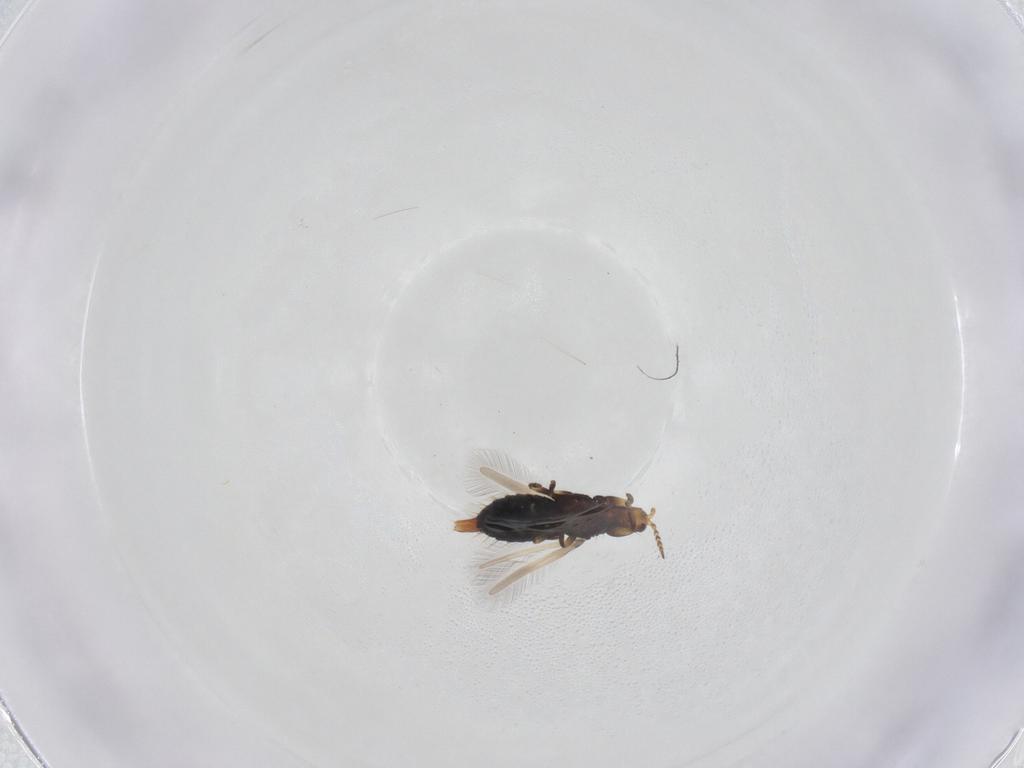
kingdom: Animalia
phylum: Arthropoda
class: Insecta
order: Thysanoptera
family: Phlaeothripidae
